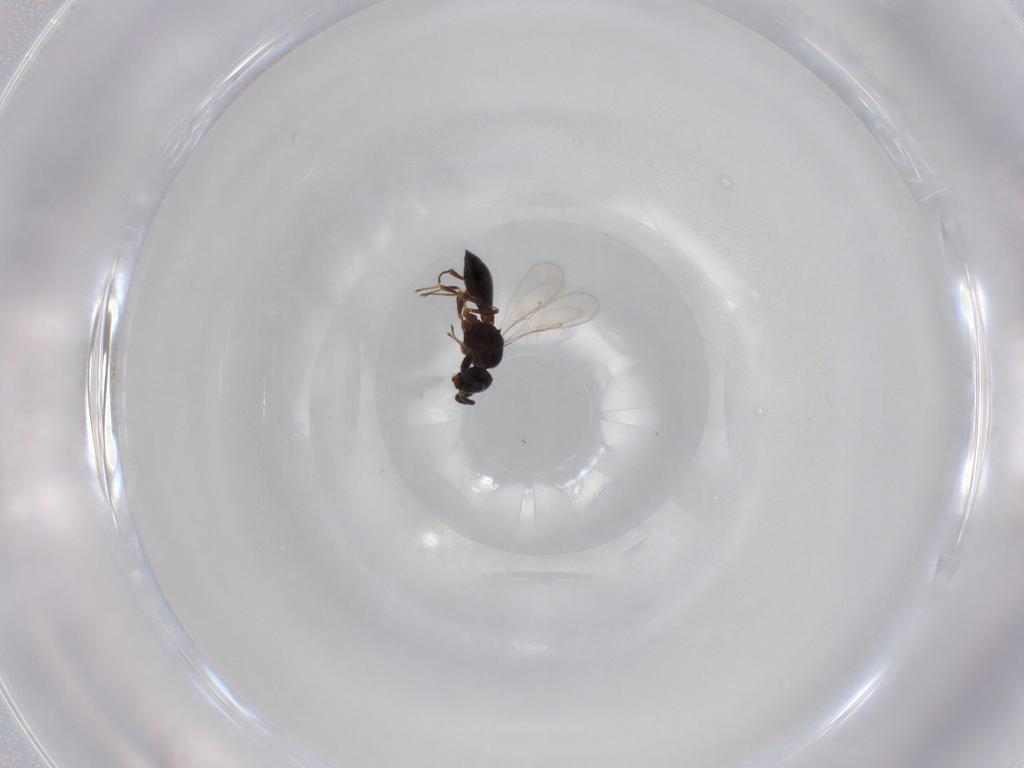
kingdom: Animalia
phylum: Arthropoda
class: Insecta
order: Hymenoptera
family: Scelionidae
